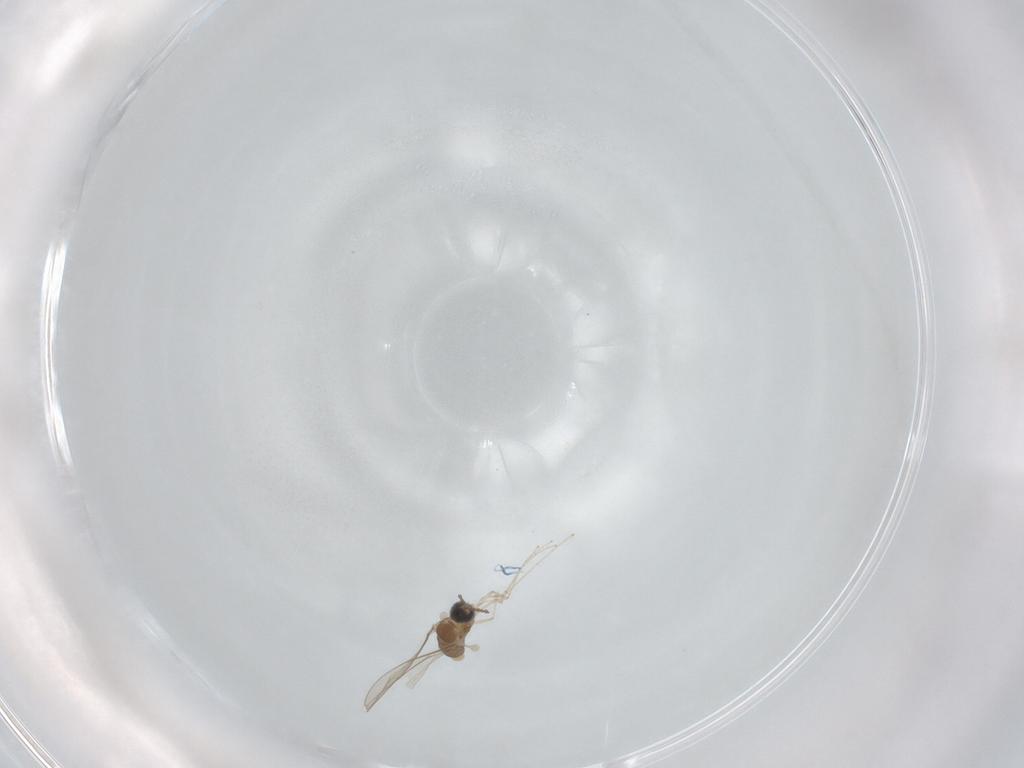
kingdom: Animalia
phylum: Arthropoda
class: Insecta
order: Diptera
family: Cecidomyiidae
